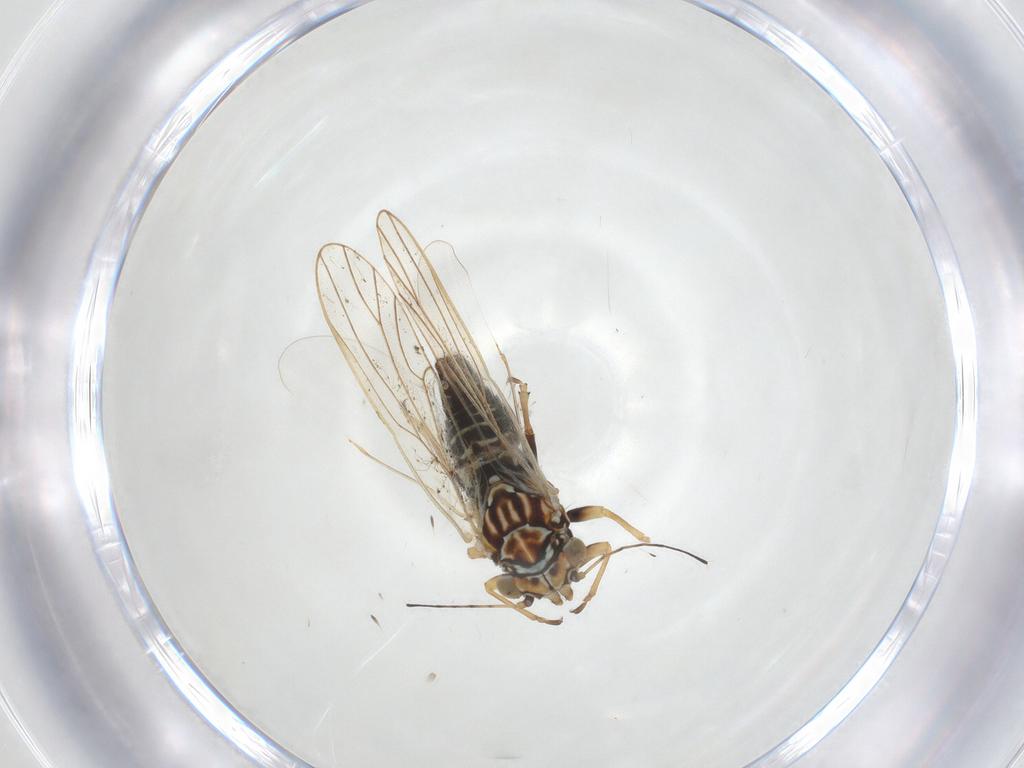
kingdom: Animalia
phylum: Arthropoda
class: Insecta
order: Hemiptera
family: Psyllidae
